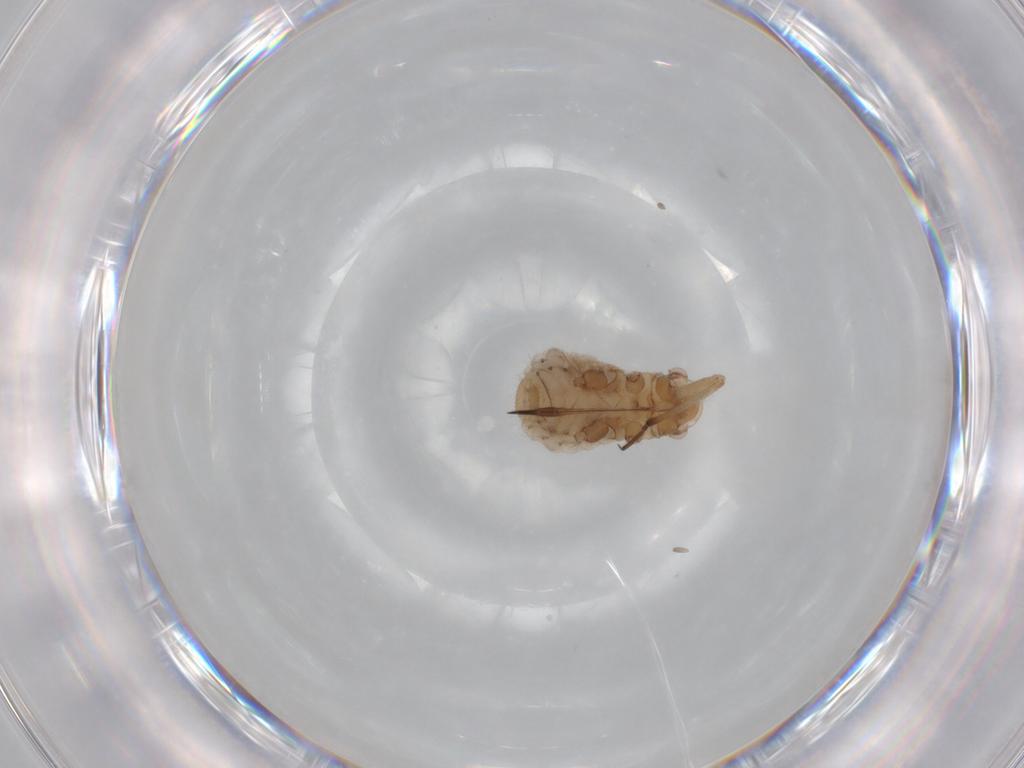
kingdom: Animalia
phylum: Arthropoda
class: Insecta
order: Hemiptera
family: Aphididae
